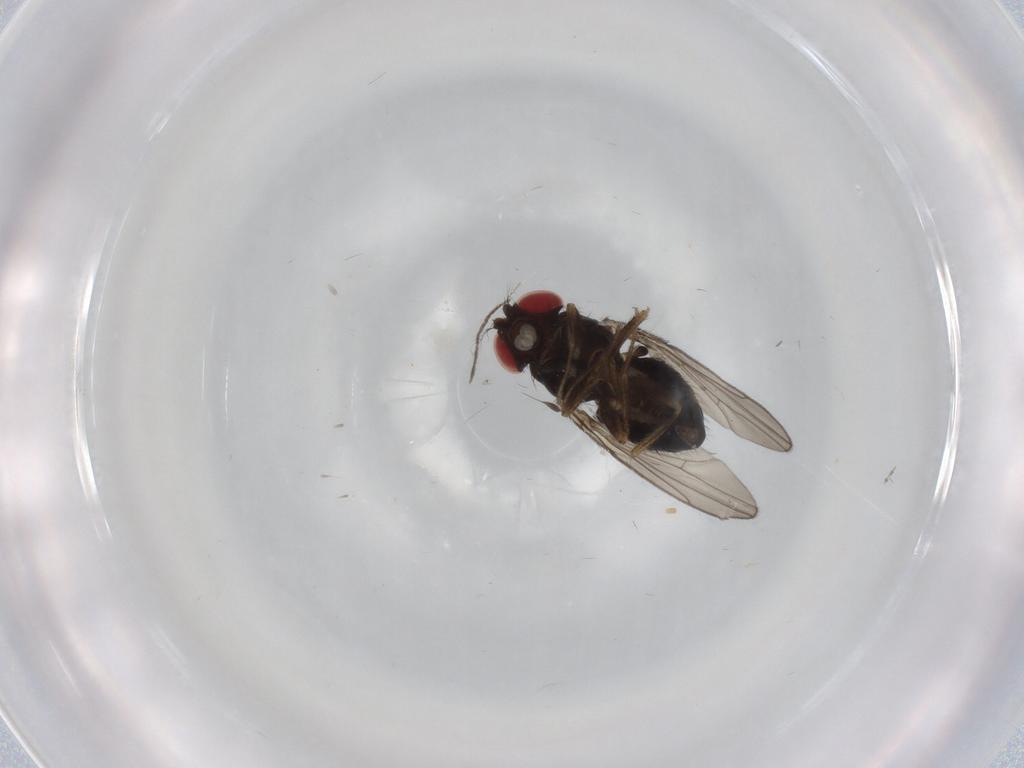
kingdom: Animalia
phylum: Arthropoda
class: Insecta
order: Diptera
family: Drosophilidae
